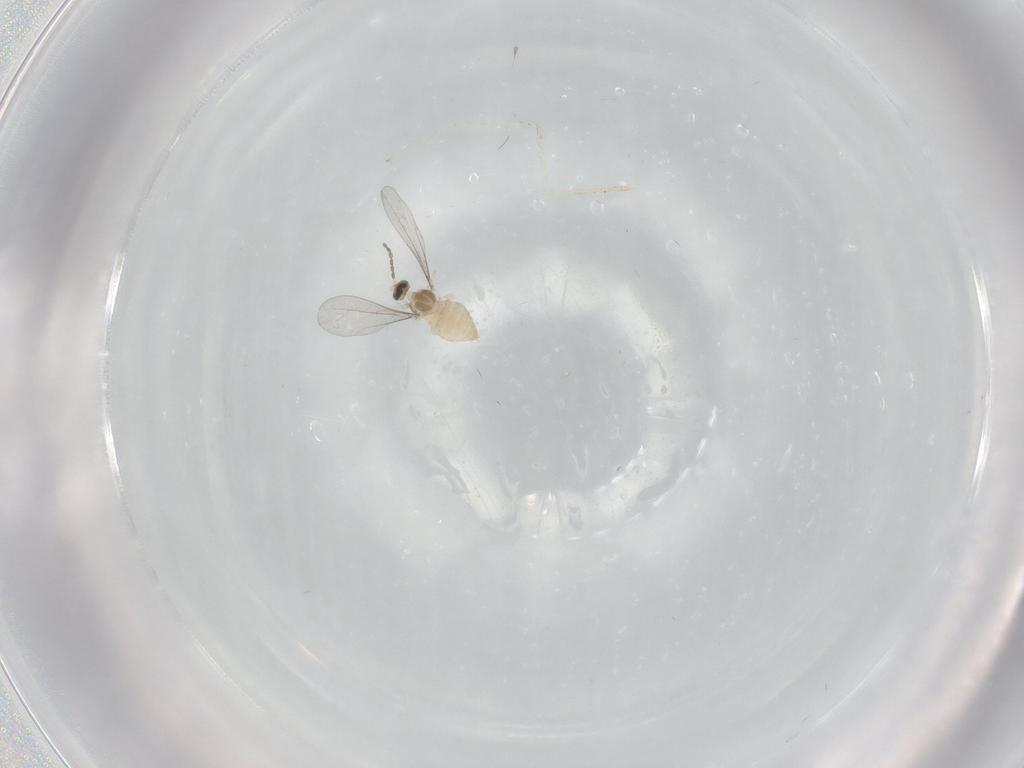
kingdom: Animalia
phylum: Arthropoda
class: Insecta
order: Diptera
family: Cecidomyiidae
